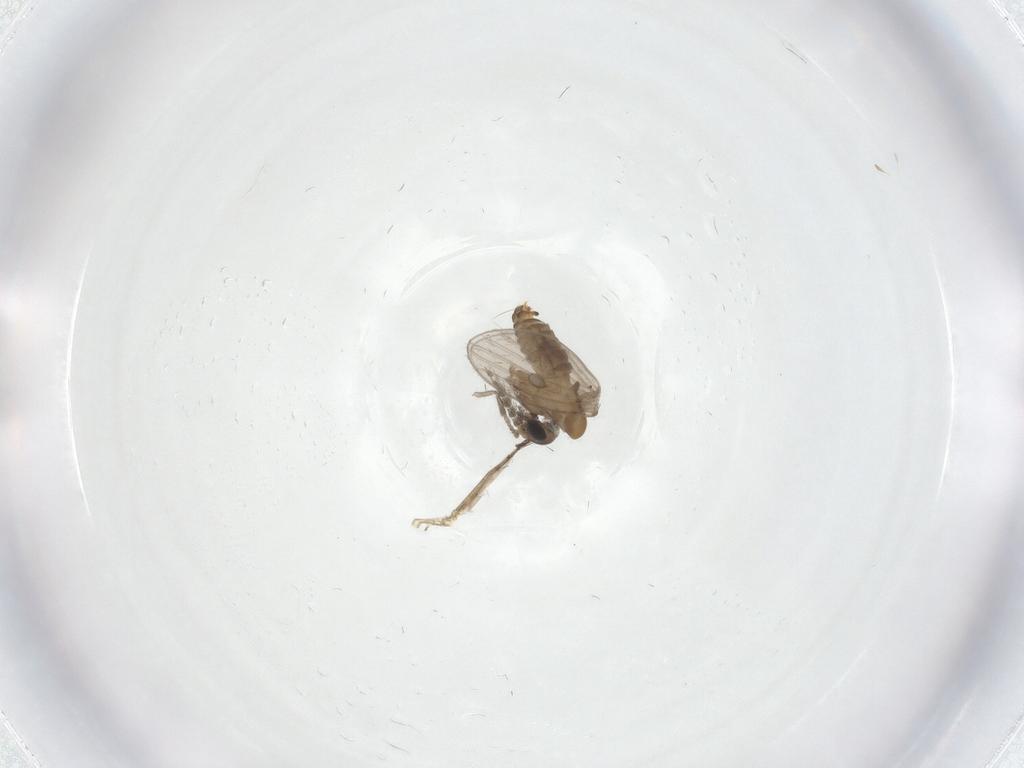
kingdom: Animalia
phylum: Arthropoda
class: Insecta
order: Diptera
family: Psychodidae
